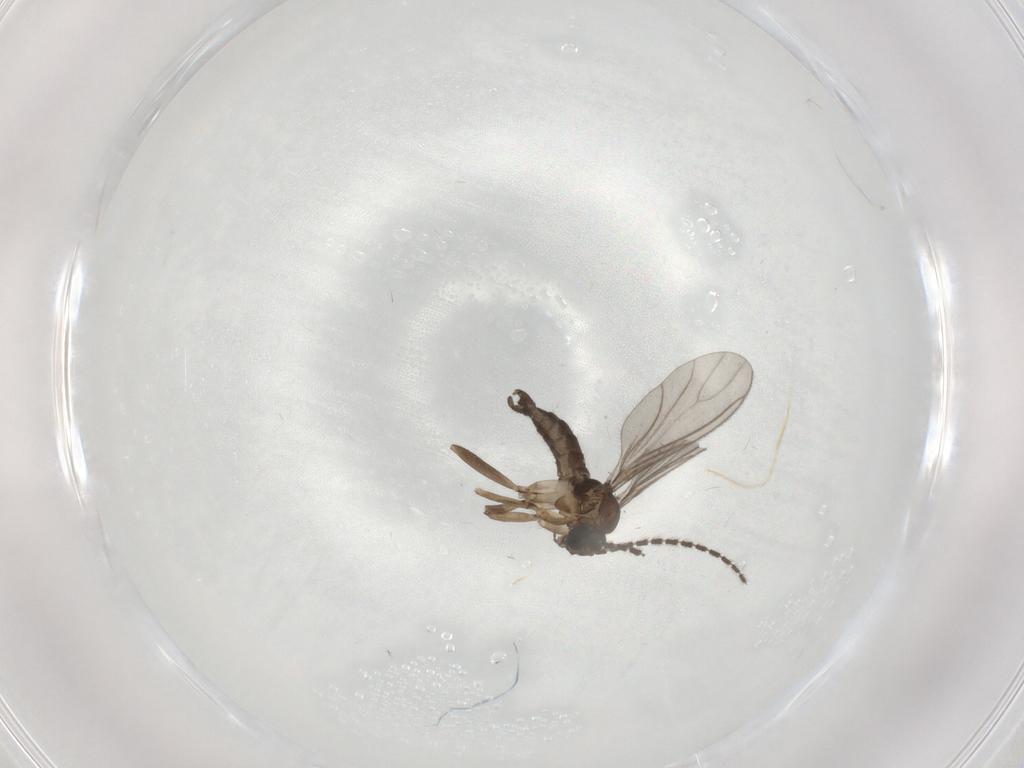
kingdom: Animalia
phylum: Arthropoda
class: Insecta
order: Diptera
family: Sciaridae
